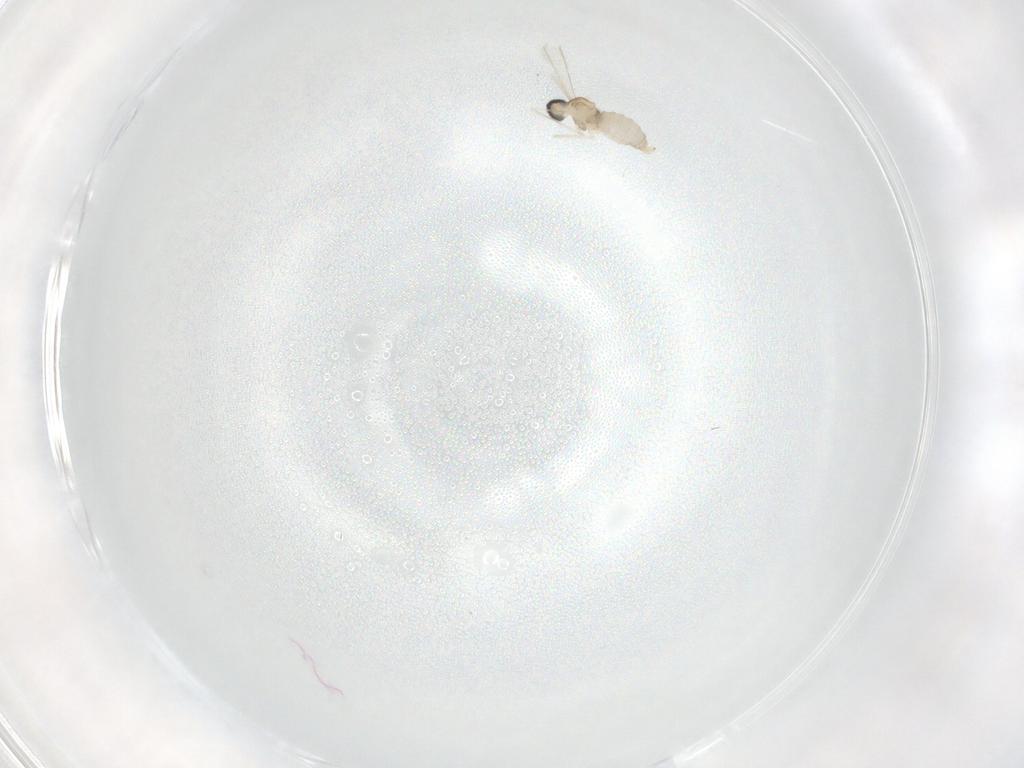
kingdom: Animalia
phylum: Arthropoda
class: Insecta
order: Diptera
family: Cecidomyiidae
